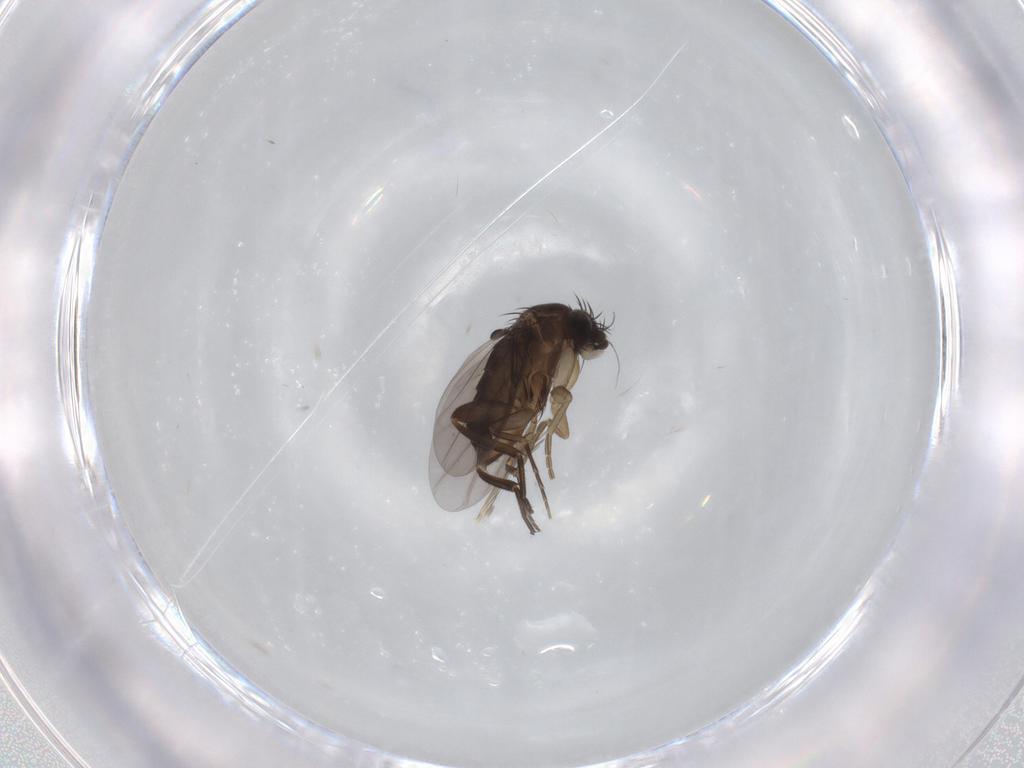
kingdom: Animalia
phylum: Arthropoda
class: Insecta
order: Diptera
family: Phoridae
